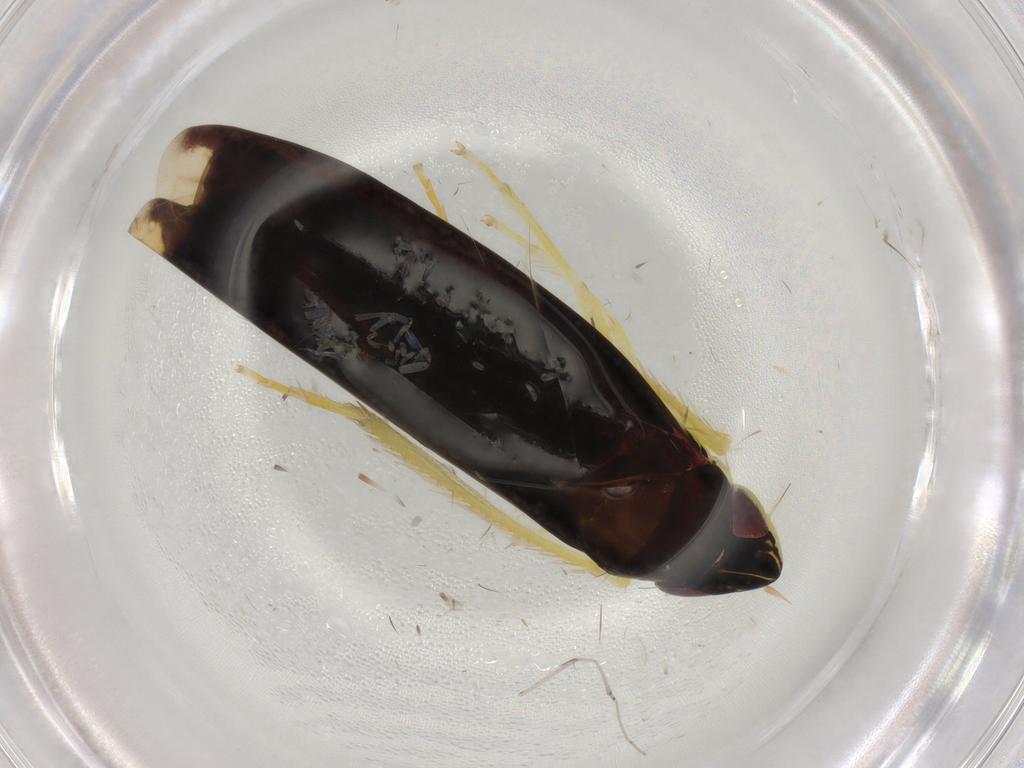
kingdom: Animalia
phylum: Arthropoda
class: Insecta
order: Hemiptera
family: Cicadellidae
